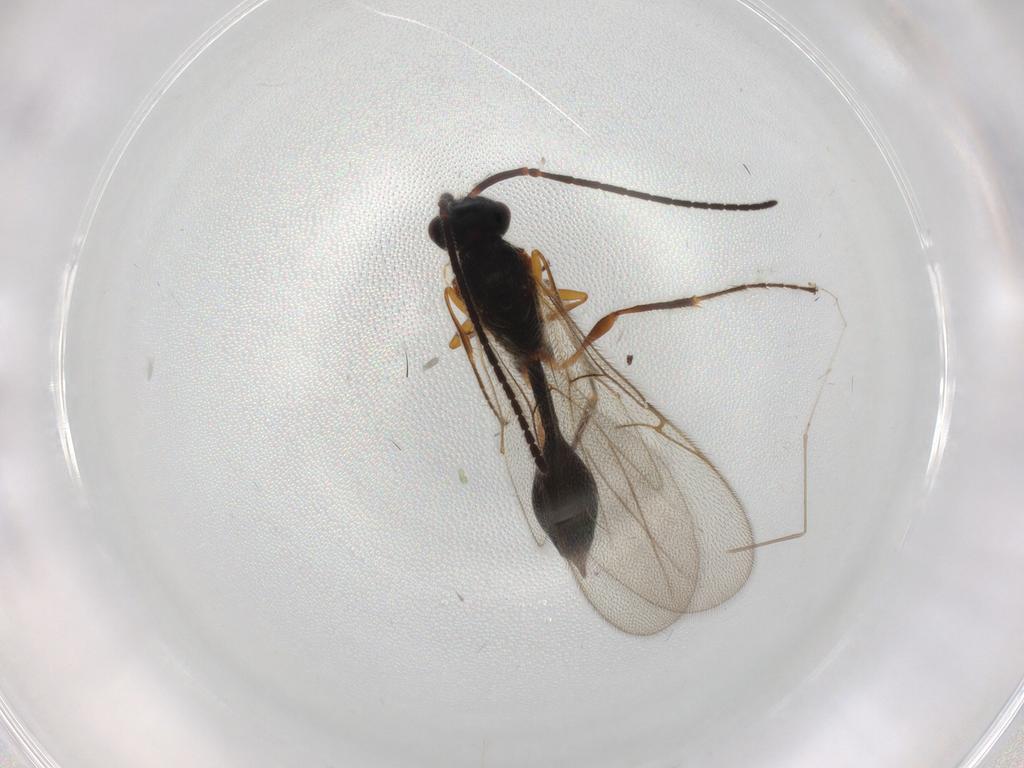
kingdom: Animalia
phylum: Arthropoda
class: Insecta
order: Hymenoptera
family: Diapriidae
